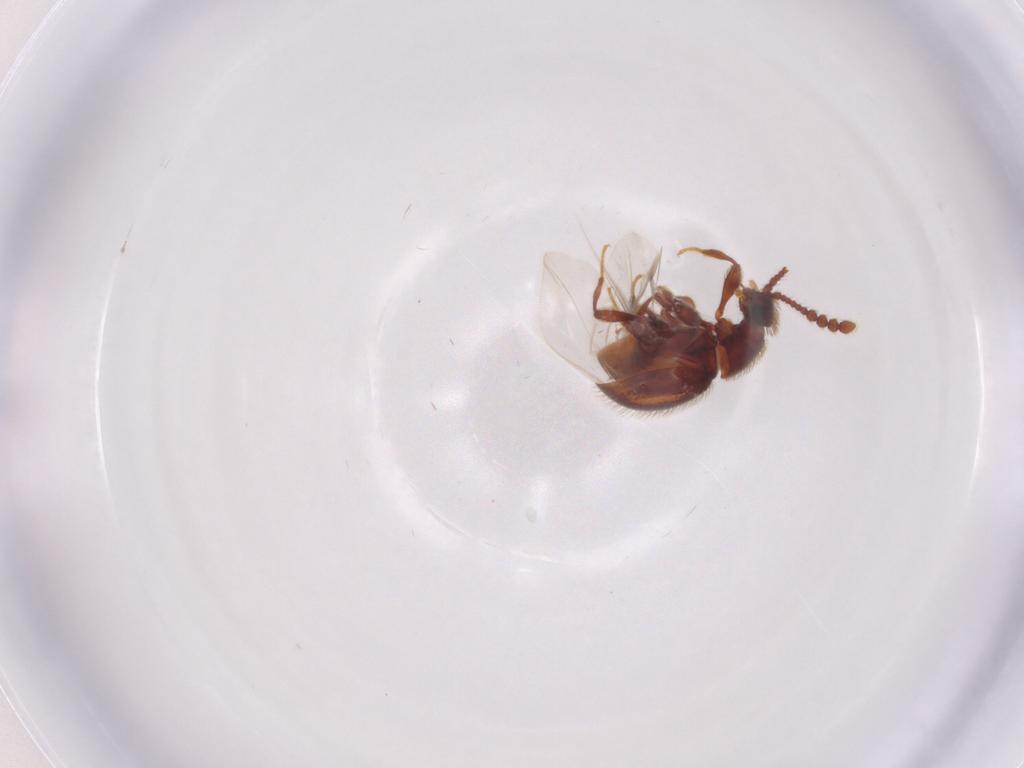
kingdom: Animalia
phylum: Arthropoda
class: Insecta
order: Coleoptera
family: Staphylinidae
